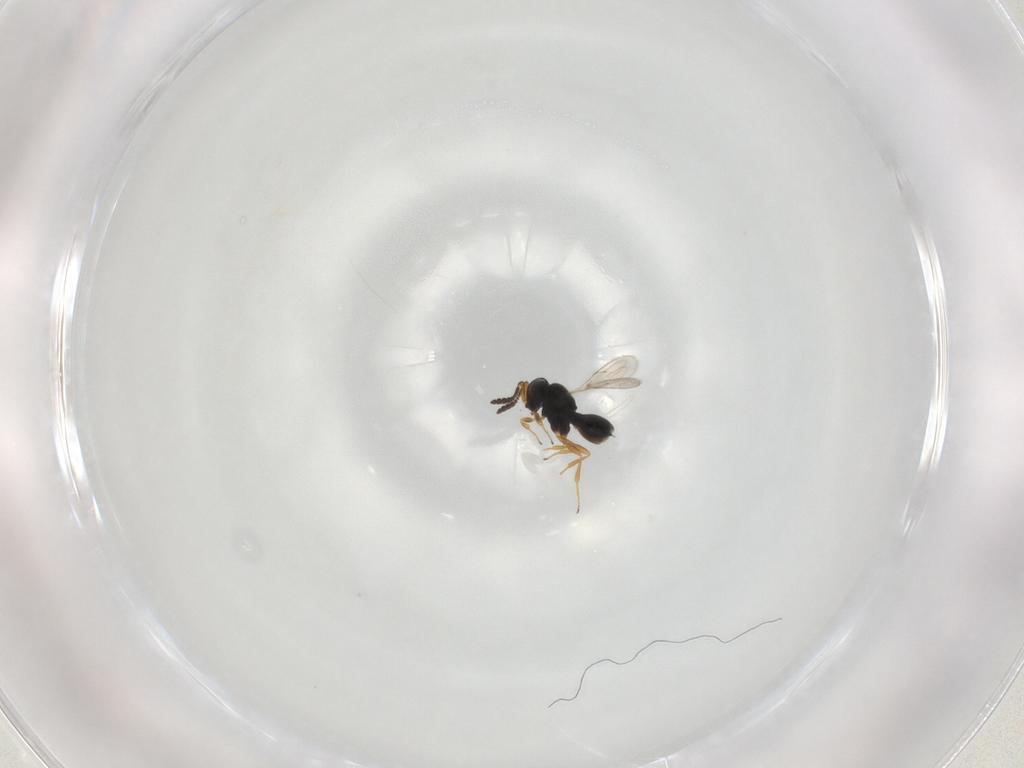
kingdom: Animalia
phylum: Arthropoda
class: Insecta
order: Hymenoptera
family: Scelionidae
